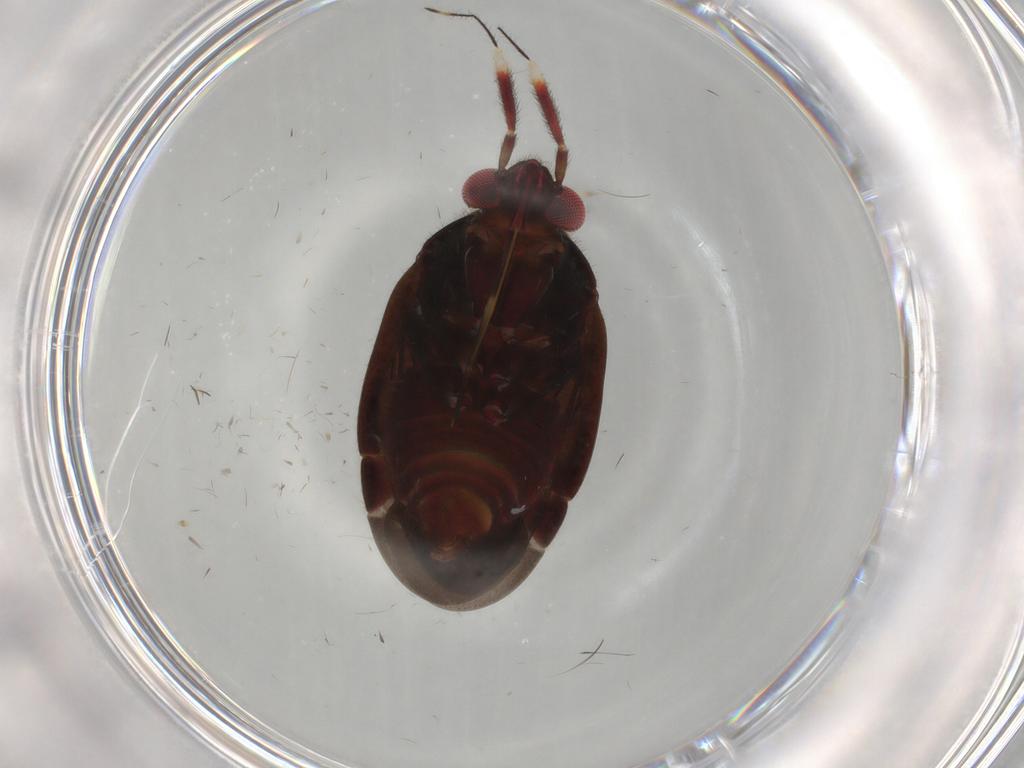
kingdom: Animalia
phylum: Arthropoda
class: Insecta
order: Hemiptera
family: Miridae
